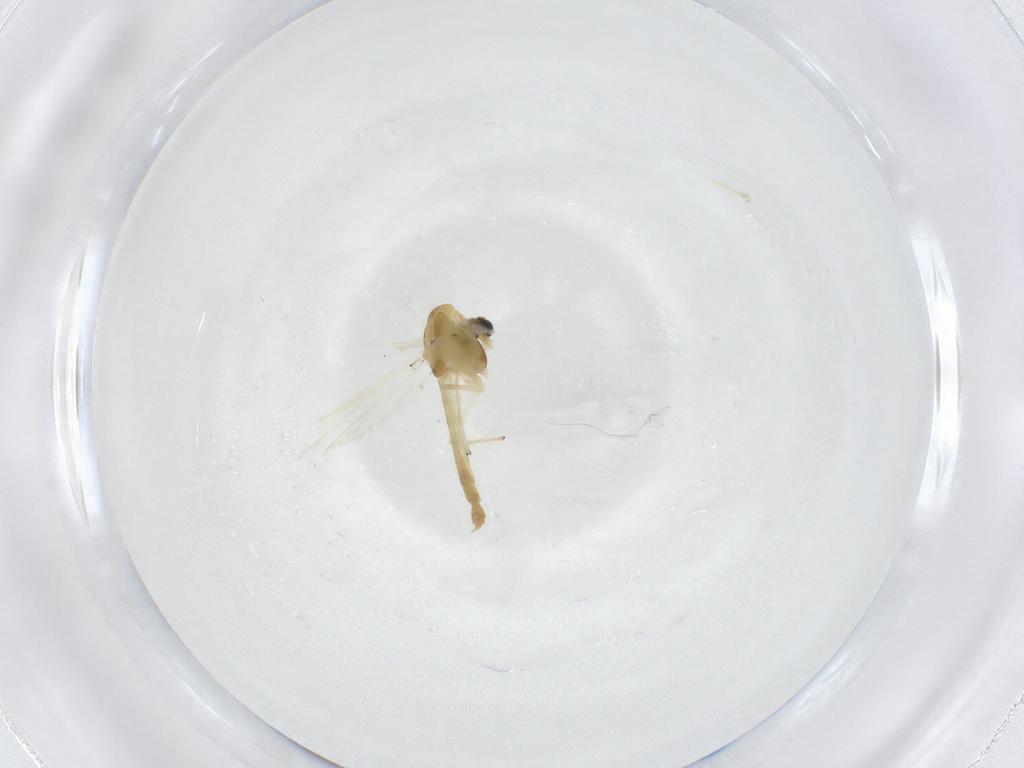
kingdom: Animalia
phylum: Arthropoda
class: Insecta
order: Diptera
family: Chironomidae
